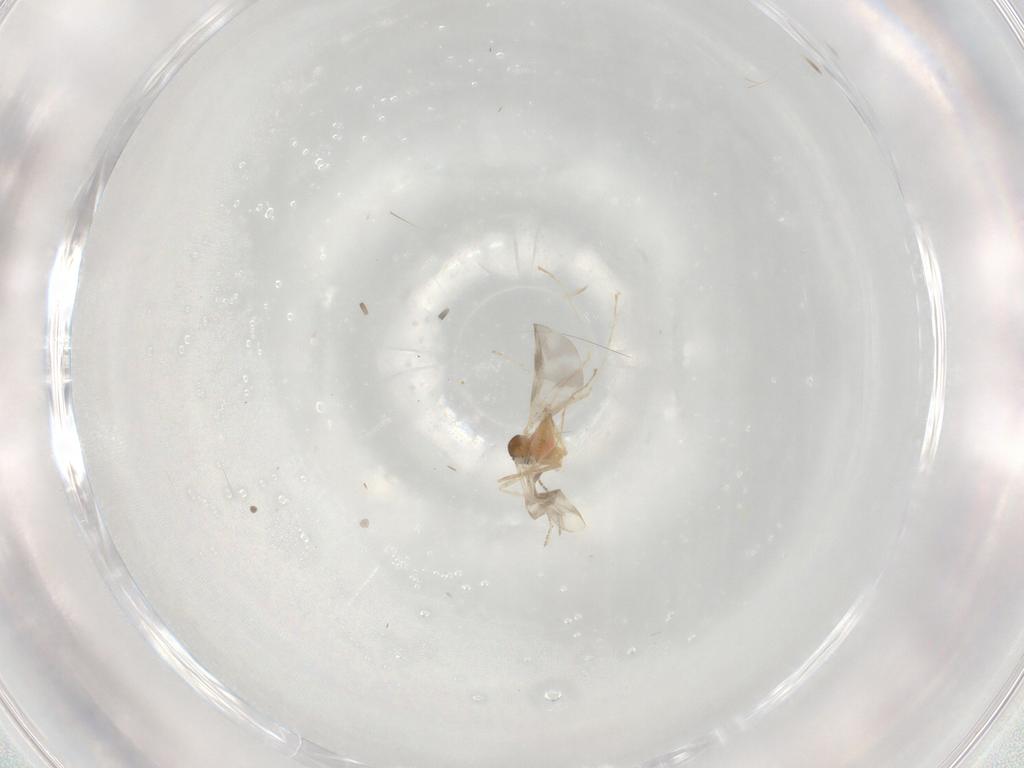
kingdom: Animalia
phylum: Arthropoda
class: Insecta
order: Diptera
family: Cecidomyiidae
